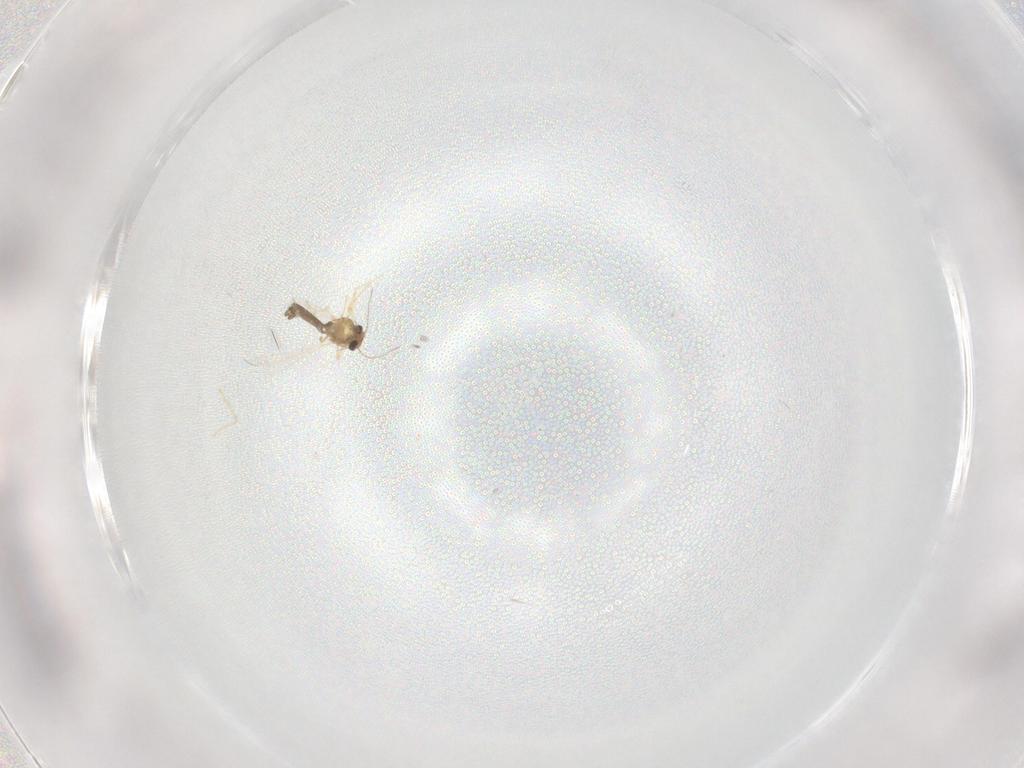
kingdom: Animalia
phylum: Arthropoda
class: Insecta
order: Diptera
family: Chironomidae
